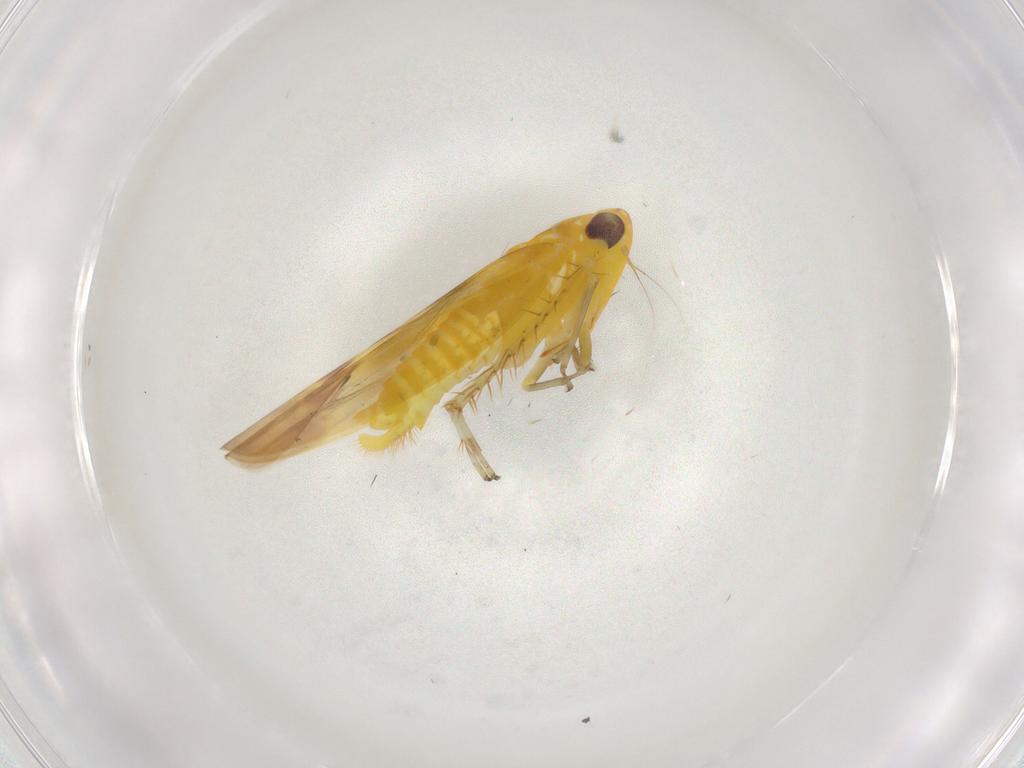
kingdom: Animalia
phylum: Arthropoda
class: Insecta
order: Hemiptera
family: Cicadellidae
